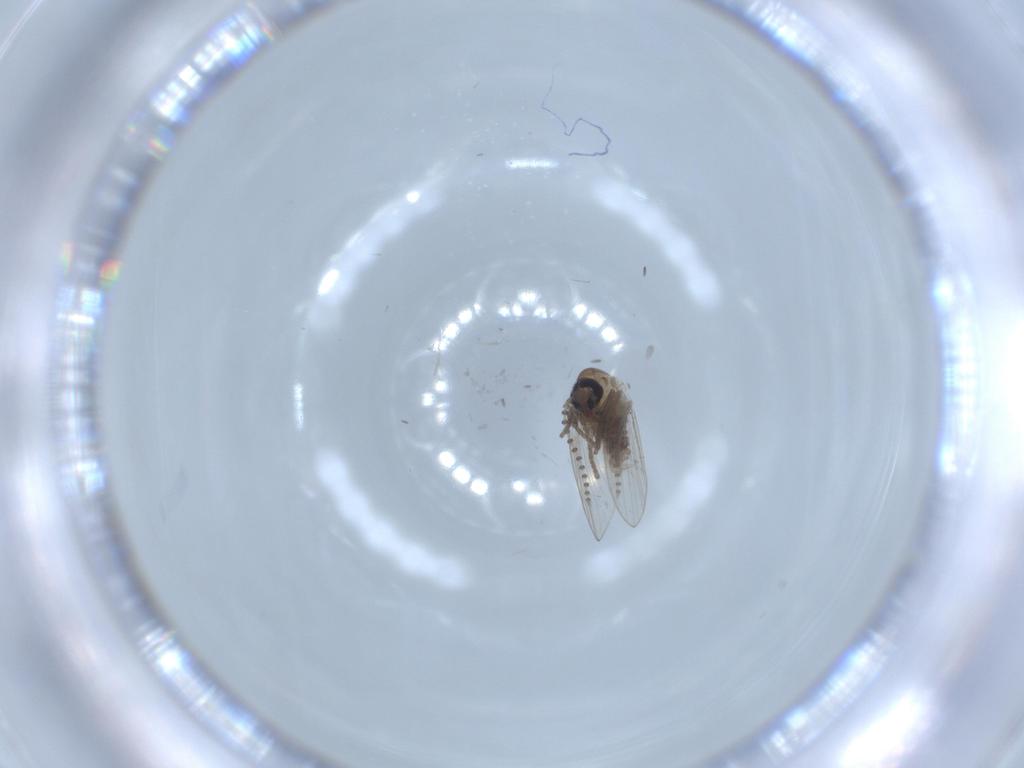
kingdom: Animalia
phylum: Arthropoda
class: Insecta
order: Diptera
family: Psychodidae
